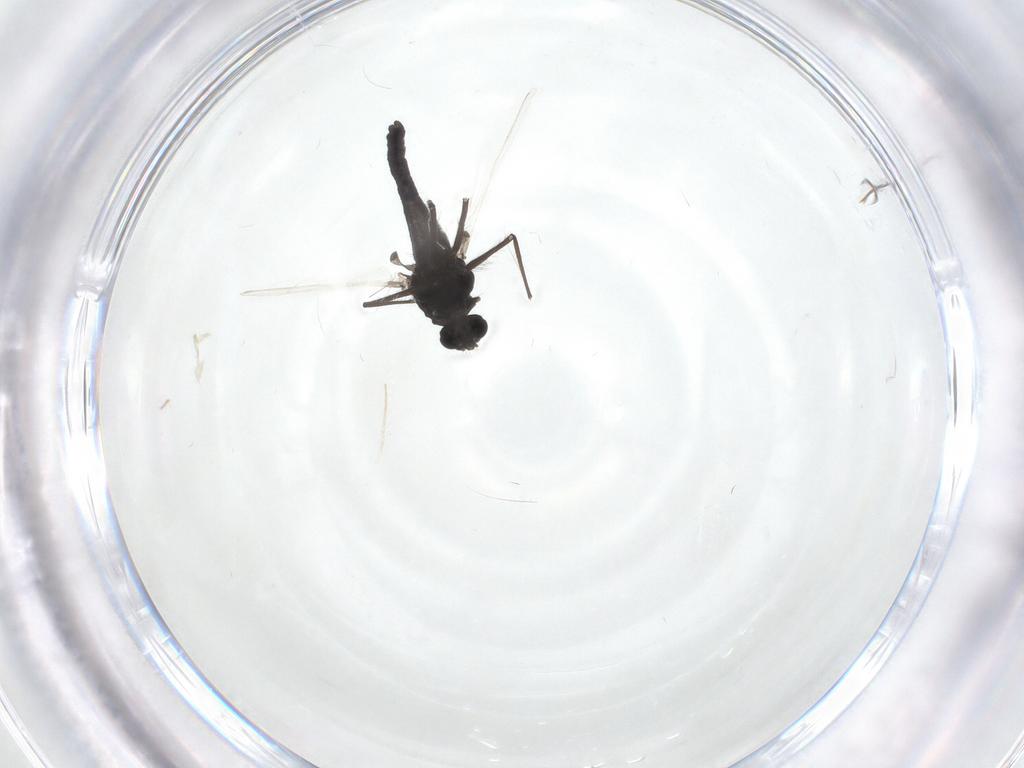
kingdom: Animalia
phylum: Arthropoda
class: Insecta
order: Diptera
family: Chironomidae
